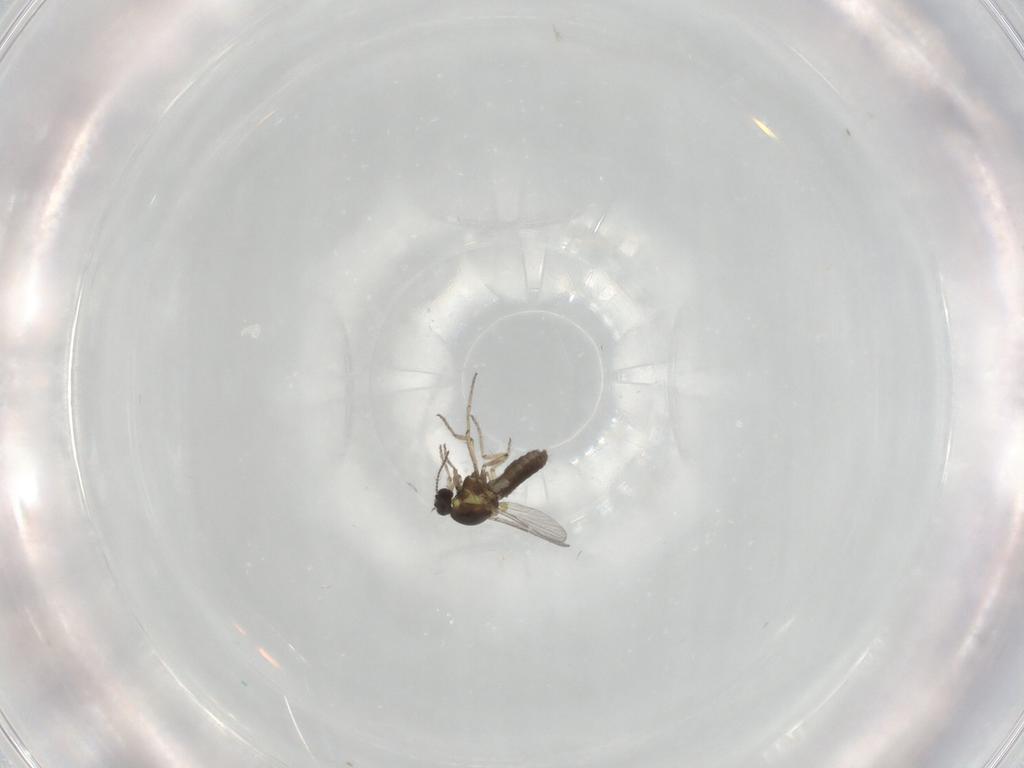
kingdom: Animalia
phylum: Arthropoda
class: Insecta
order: Diptera
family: Ceratopogonidae
